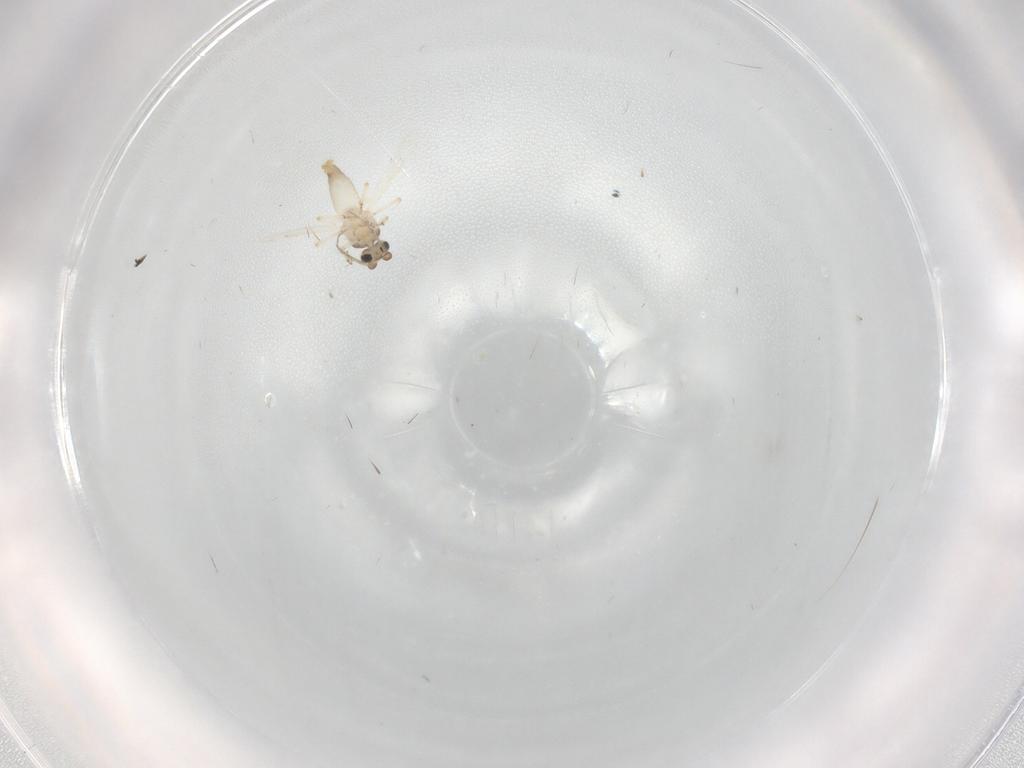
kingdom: Animalia
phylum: Arthropoda
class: Insecta
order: Diptera
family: Ceratopogonidae
